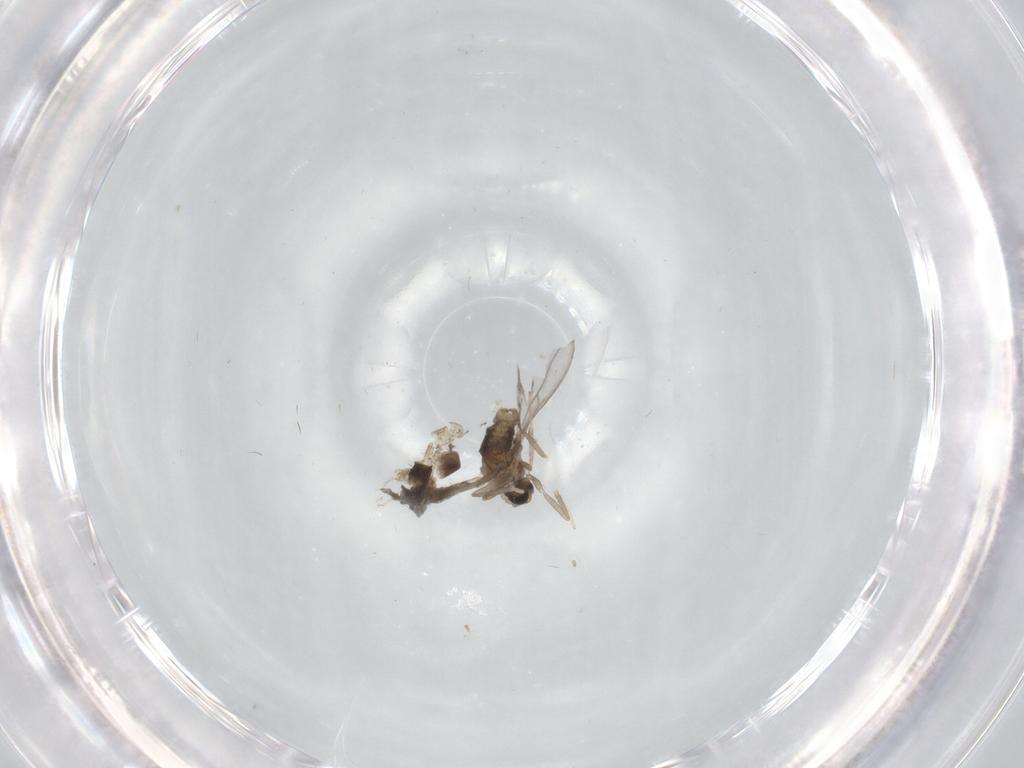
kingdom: Animalia
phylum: Arthropoda
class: Insecta
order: Diptera
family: Cecidomyiidae
